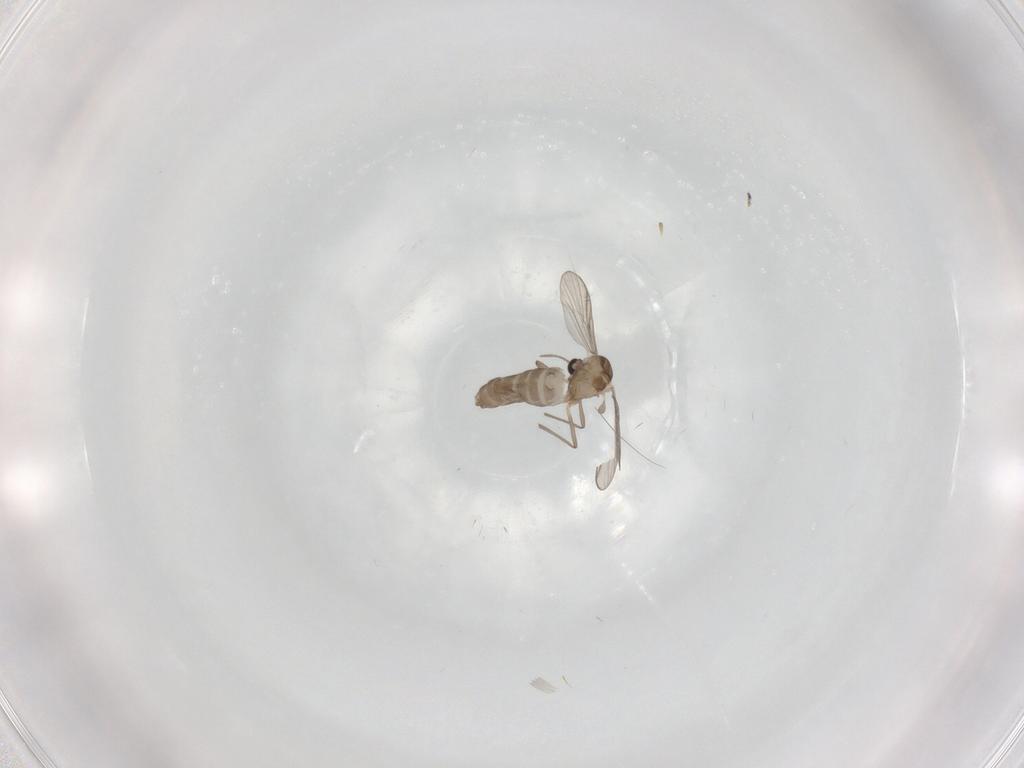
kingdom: Animalia
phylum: Arthropoda
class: Insecta
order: Diptera
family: Chironomidae
